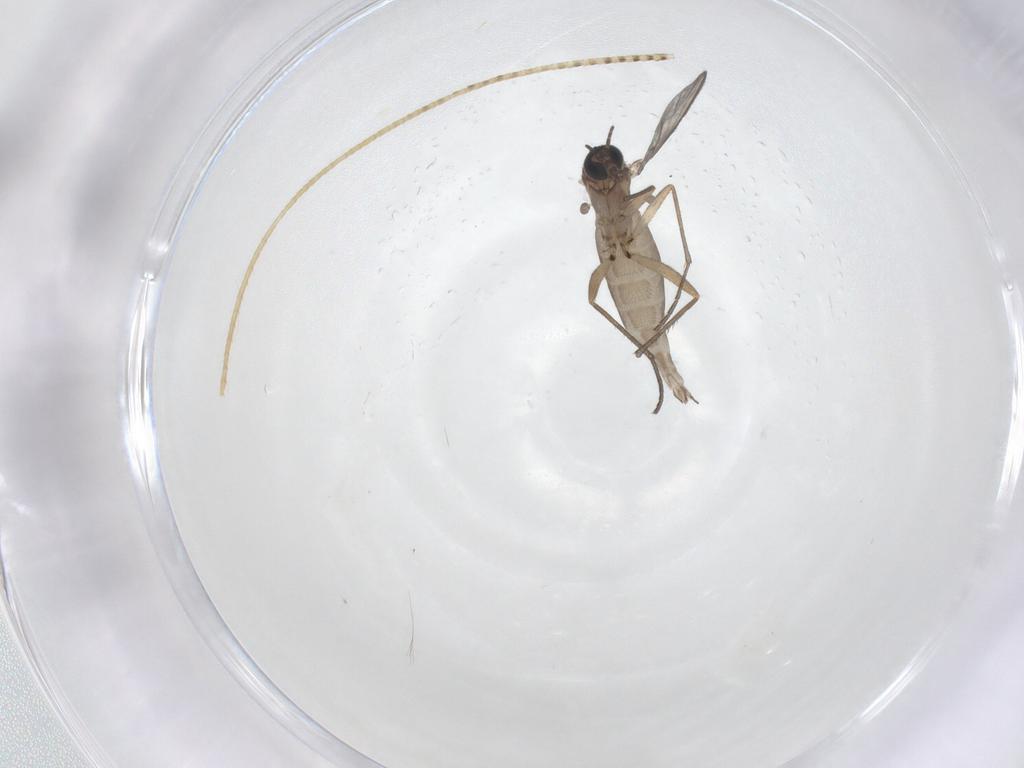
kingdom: Animalia
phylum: Arthropoda
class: Insecta
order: Diptera
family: Sciaridae
